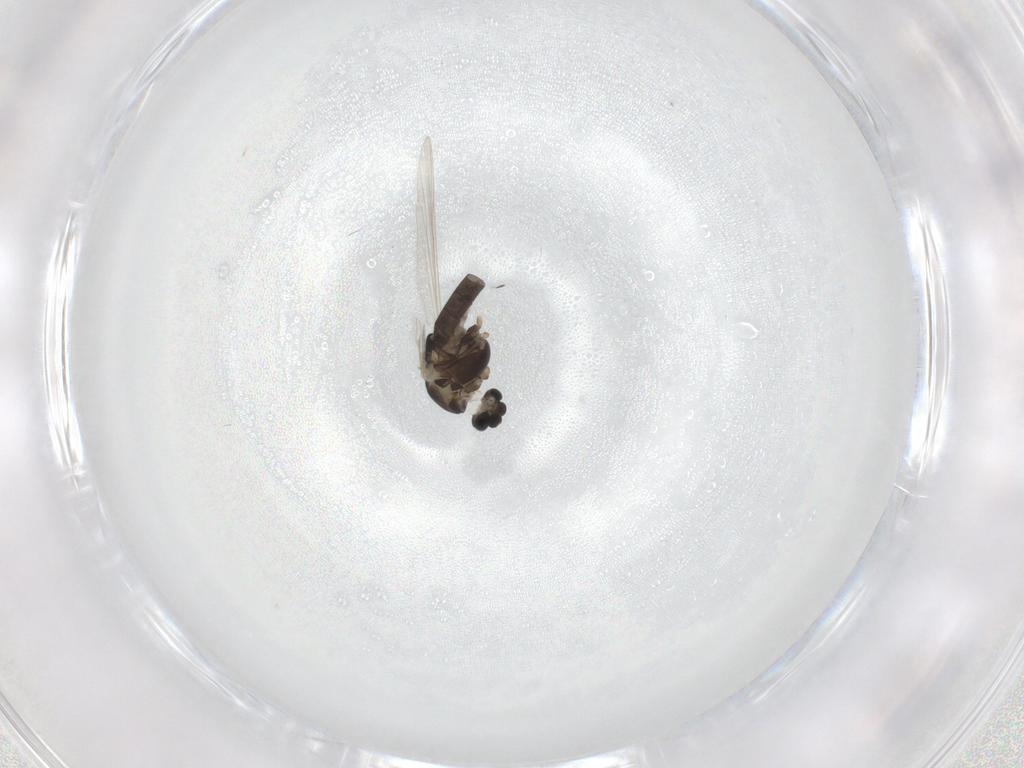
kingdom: Animalia
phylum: Arthropoda
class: Insecta
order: Diptera
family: Chironomidae
